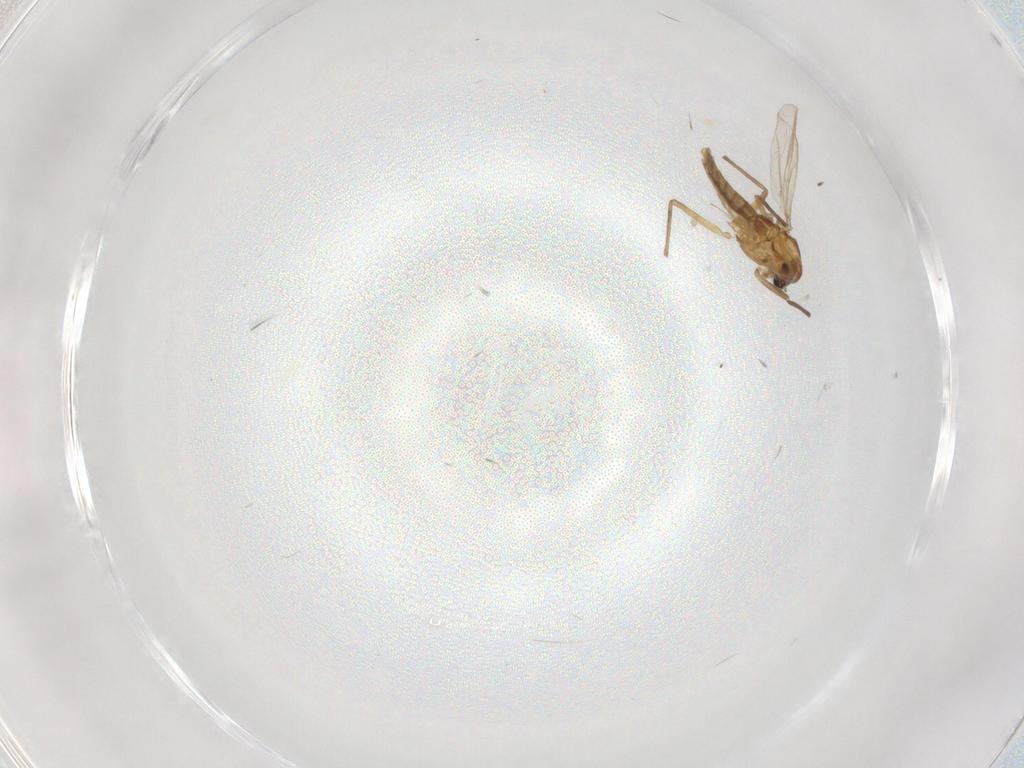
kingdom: Animalia
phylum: Arthropoda
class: Insecta
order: Diptera
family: Chironomidae
